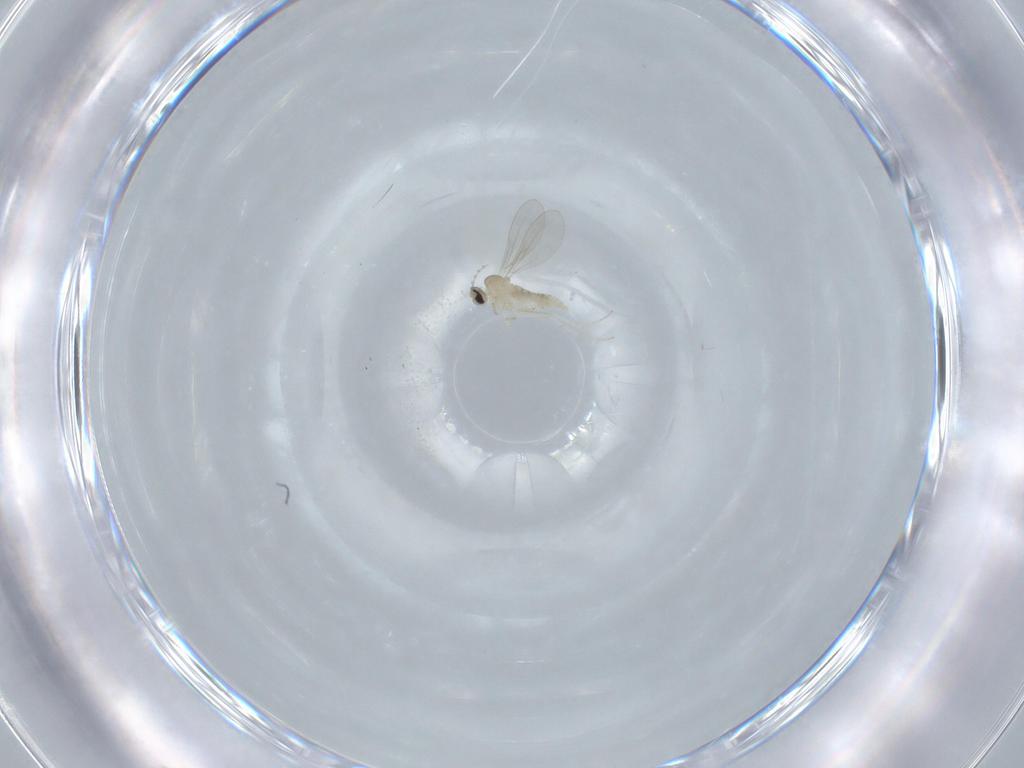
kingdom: Animalia
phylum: Arthropoda
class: Insecta
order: Diptera
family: Cecidomyiidae
